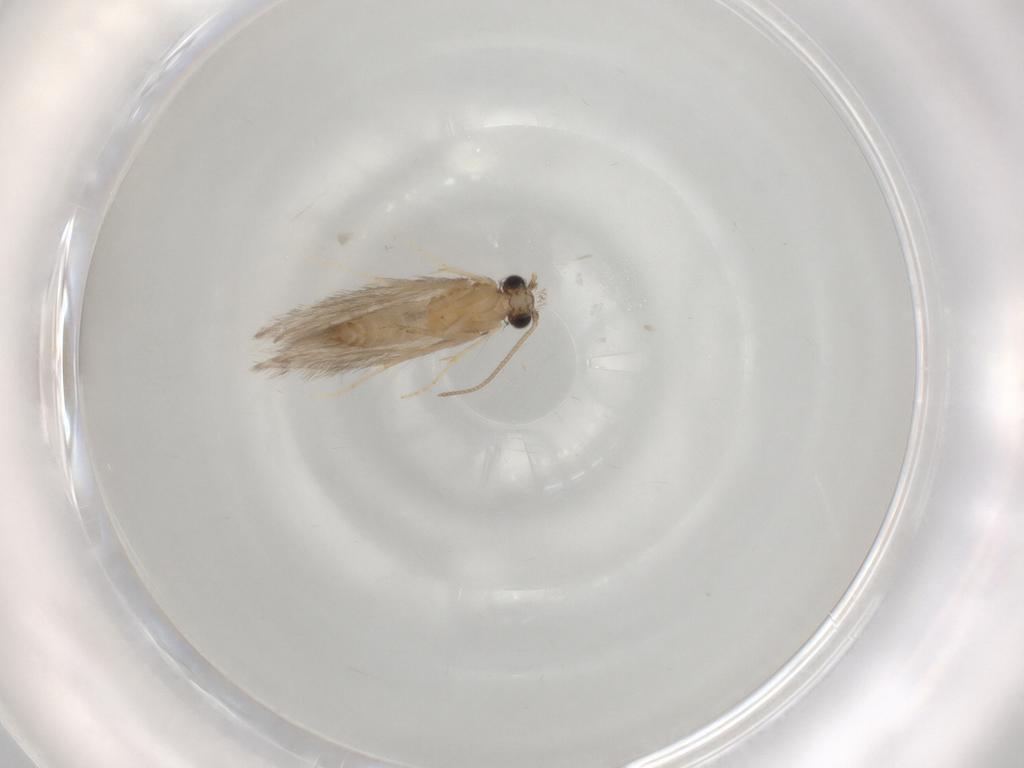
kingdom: Animalia
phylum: Arthropoda
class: Insecta
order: Trichoptera
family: Hydroptilidae
